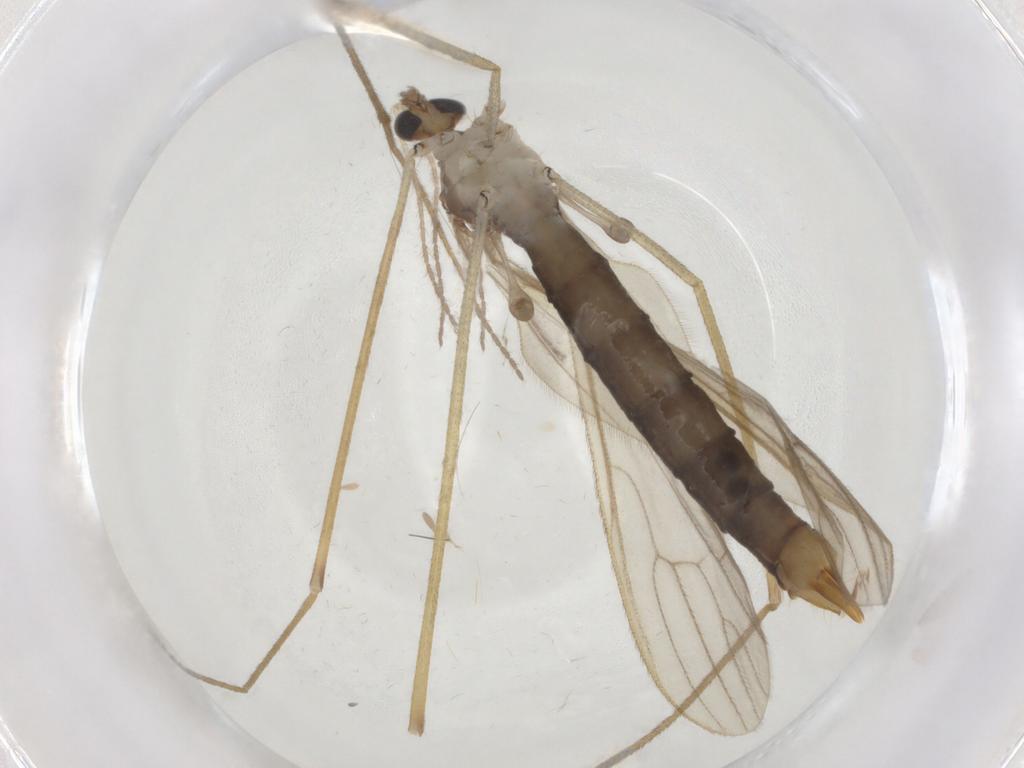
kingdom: Animalia
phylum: Arthropoda
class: Insecta
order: Diptera
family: Limoniidae
